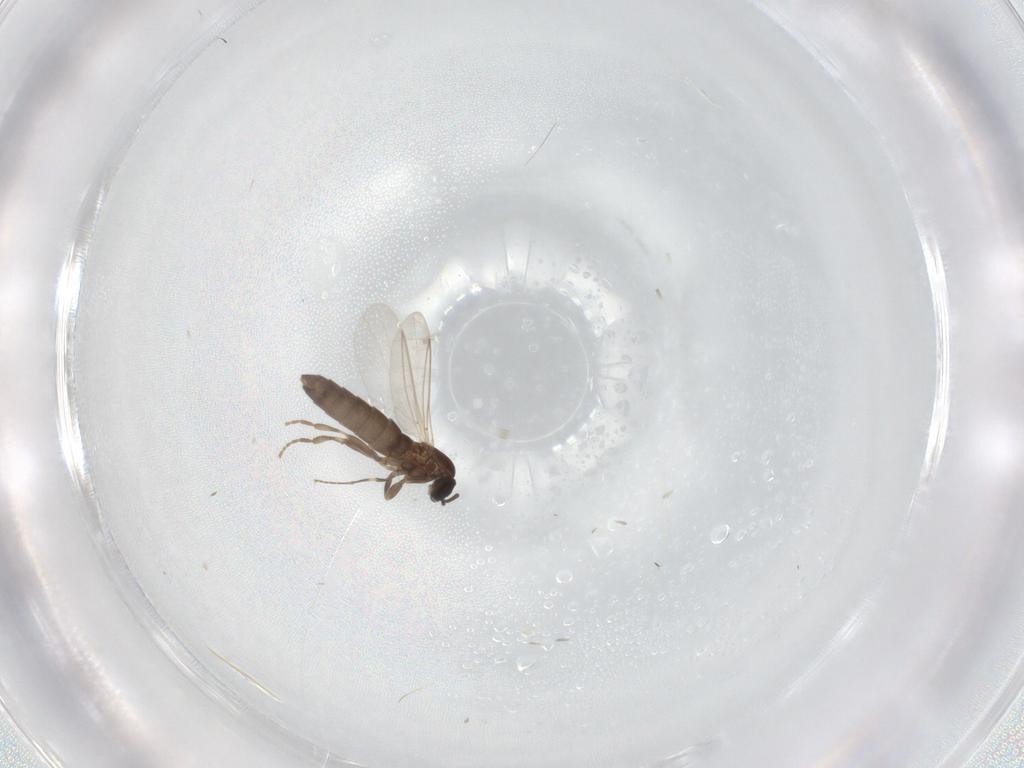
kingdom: Animalia
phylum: Arthropoda
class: Insecta
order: Diptera
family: Scatopsidae
